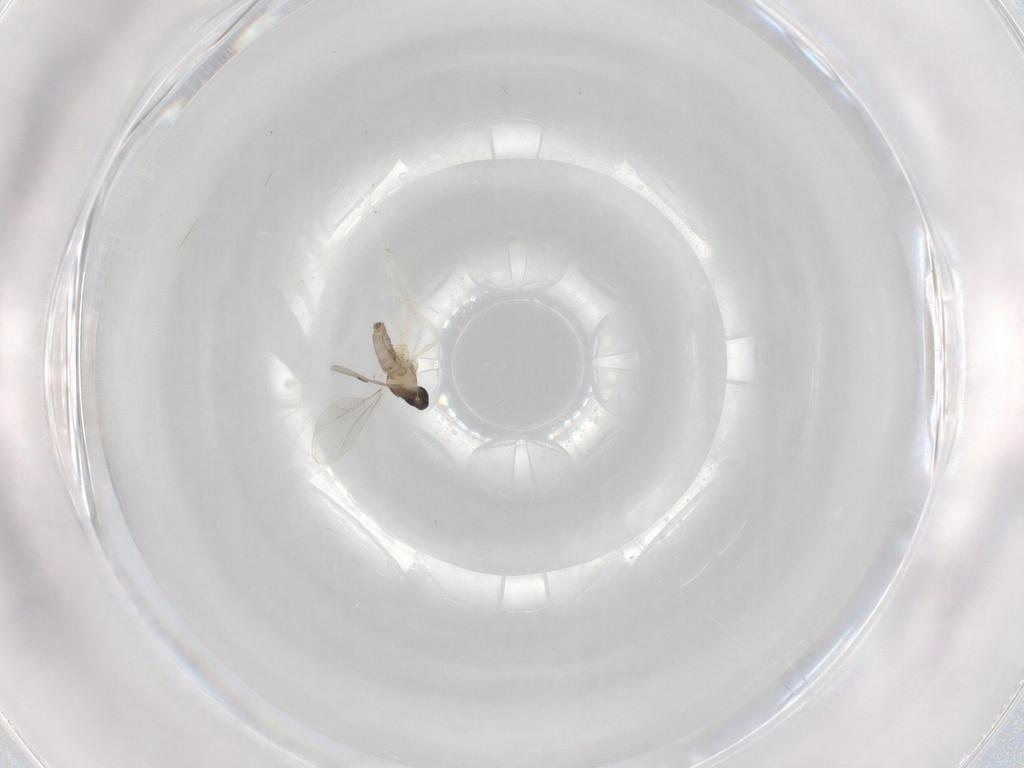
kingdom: Animalia
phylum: Arthropoda
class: Insecta
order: Diptera
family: Cecidomyiidae
